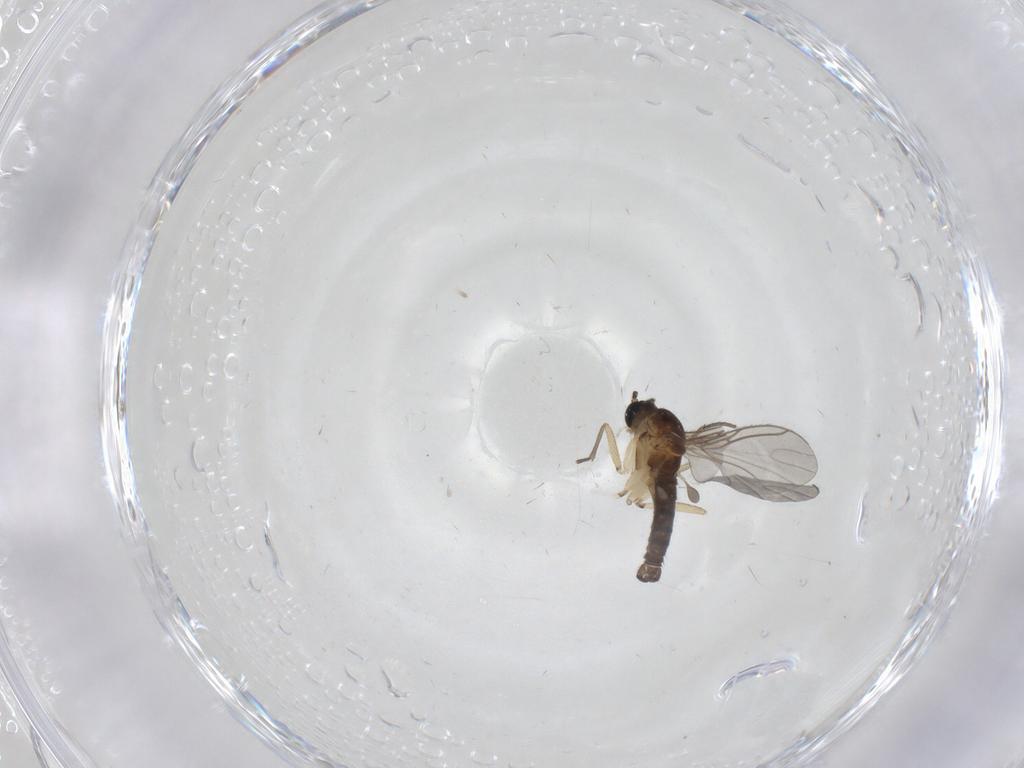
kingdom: Animalia
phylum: Arthropoda
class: Insecta
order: Diptera
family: Sciaridae
